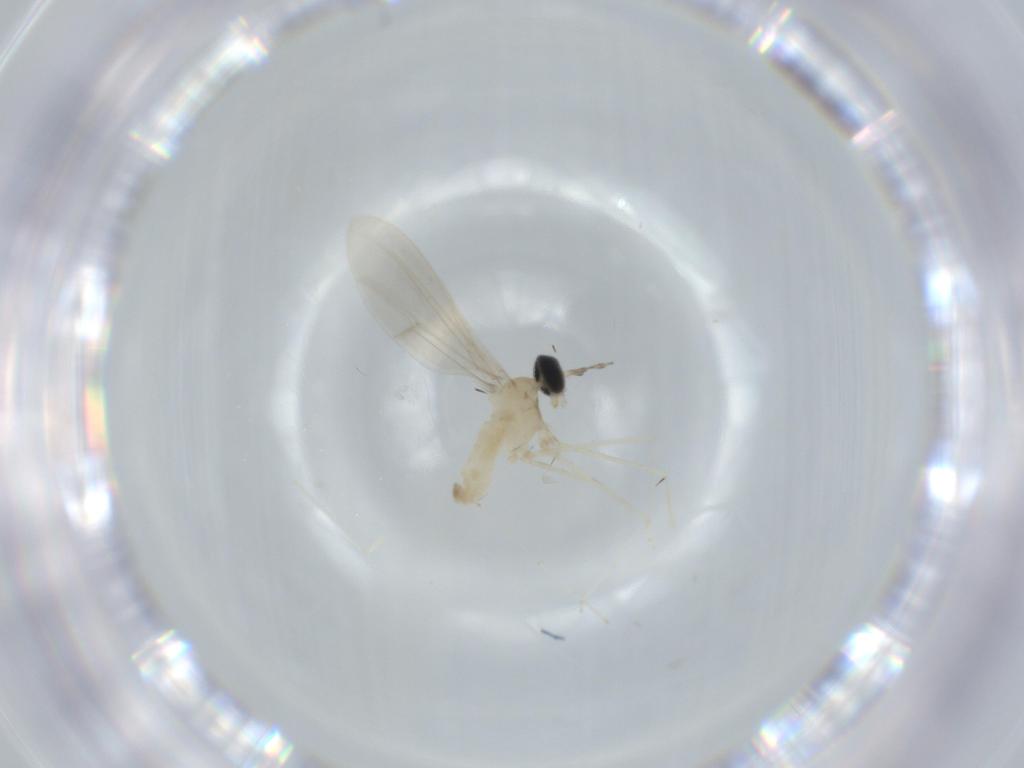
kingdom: Animalia
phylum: Arthropoda
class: Insecta
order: Diptera
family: Cecidomyiidae
